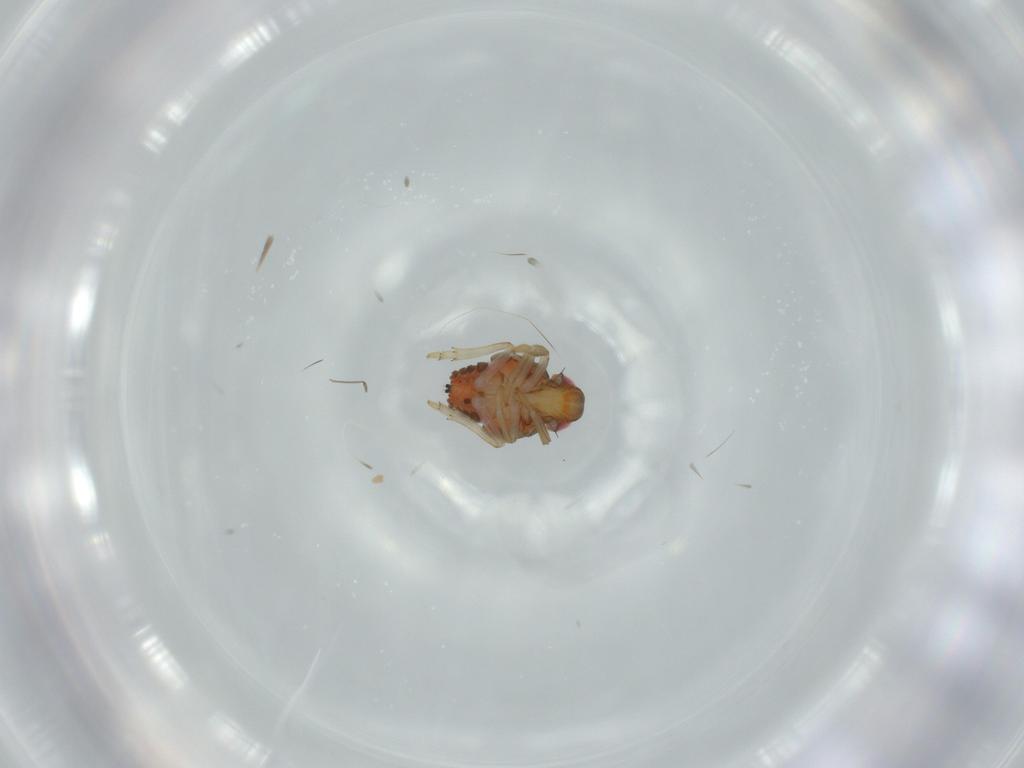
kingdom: Animalia
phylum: Arthropoda
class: Insecta
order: Hemiptera
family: Issidae
